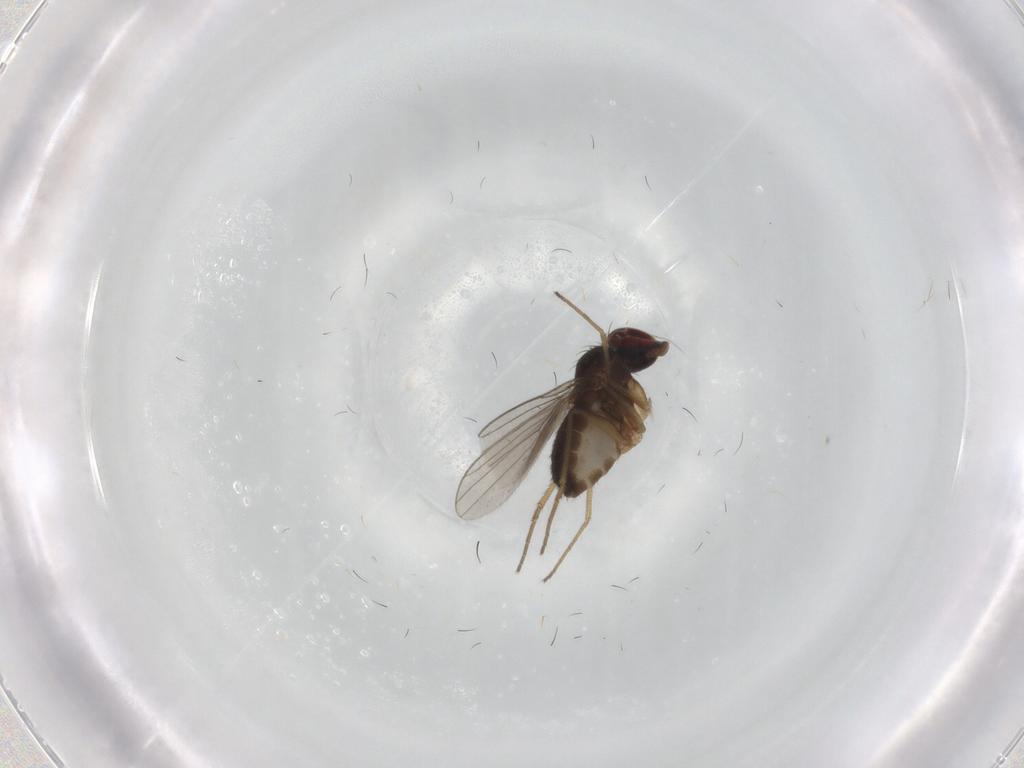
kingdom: Animalia
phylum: Arthropoda
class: Insecta
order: Diptera
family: Dolichopodidae
